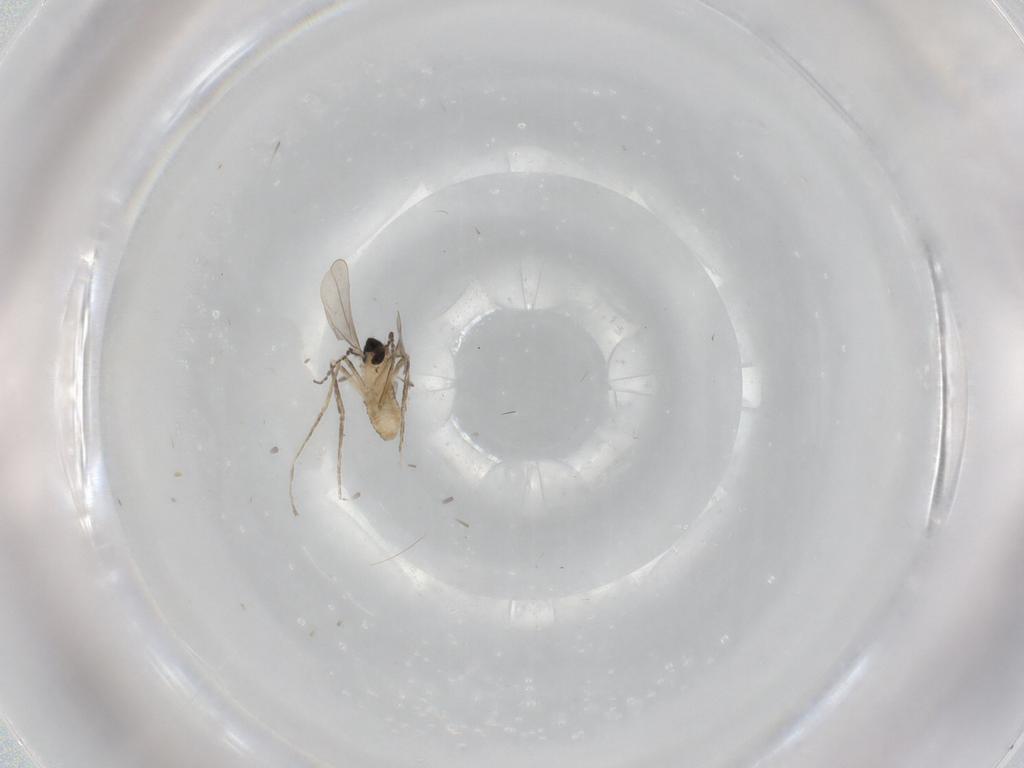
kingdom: Animalia
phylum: Arthropoda
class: Insecta
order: Diptera
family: Cecidomyiidae
